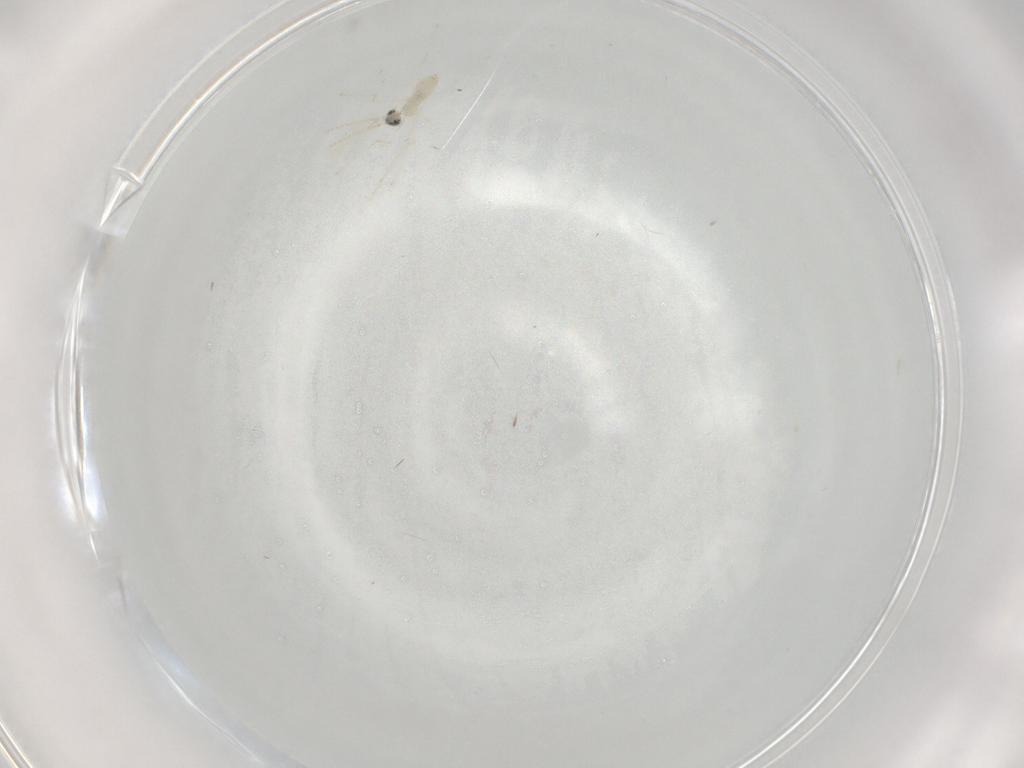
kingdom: Animalia
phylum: Arthropoda
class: Insecta
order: Diptera
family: Cecidomyiidae
